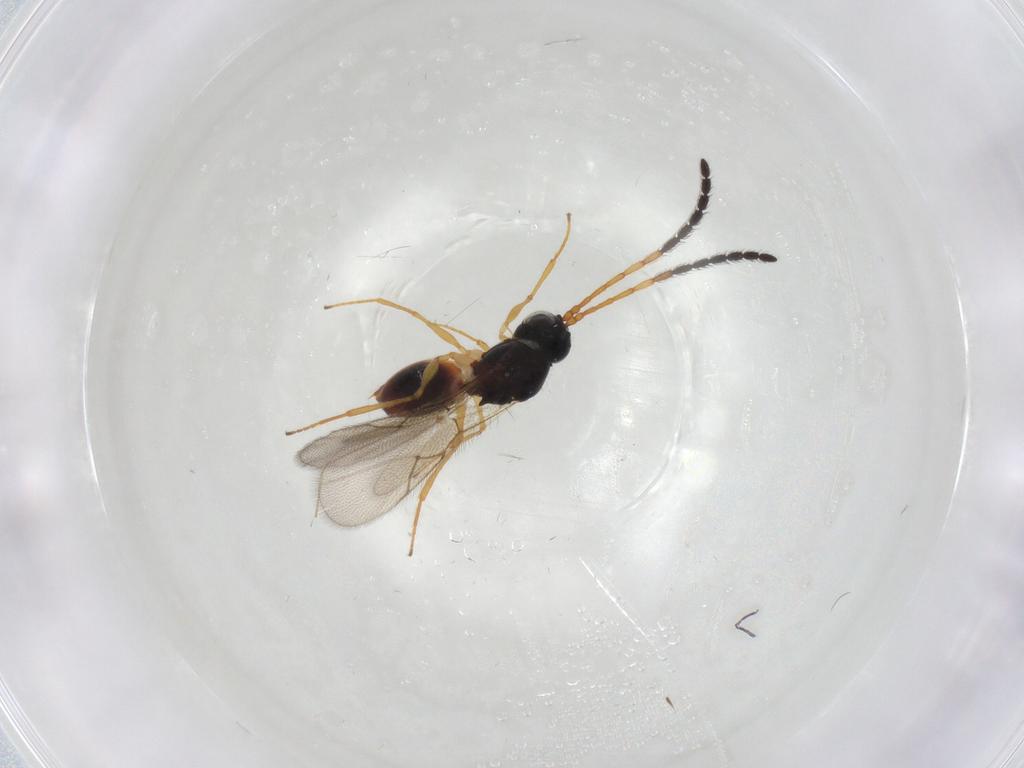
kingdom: Animalia
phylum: Arthropoda
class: Insecta
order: Hymenoptera
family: Figitidae
